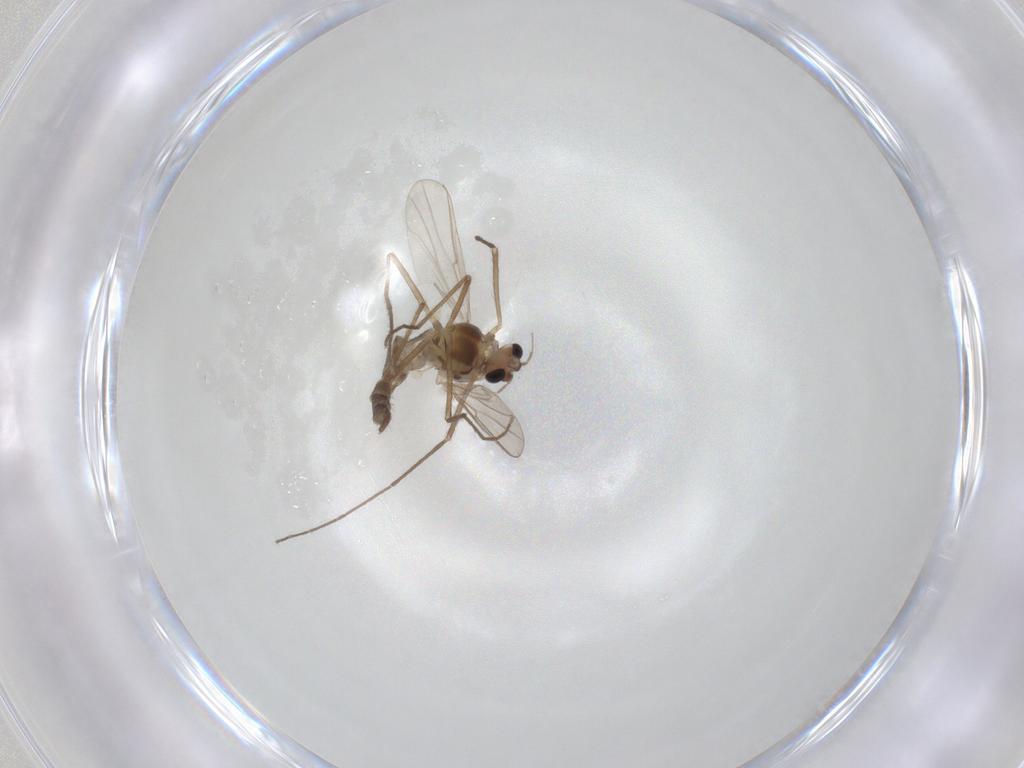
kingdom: Animalia
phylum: Arthropoda
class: Insecta
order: Diptera
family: Chironomidae
